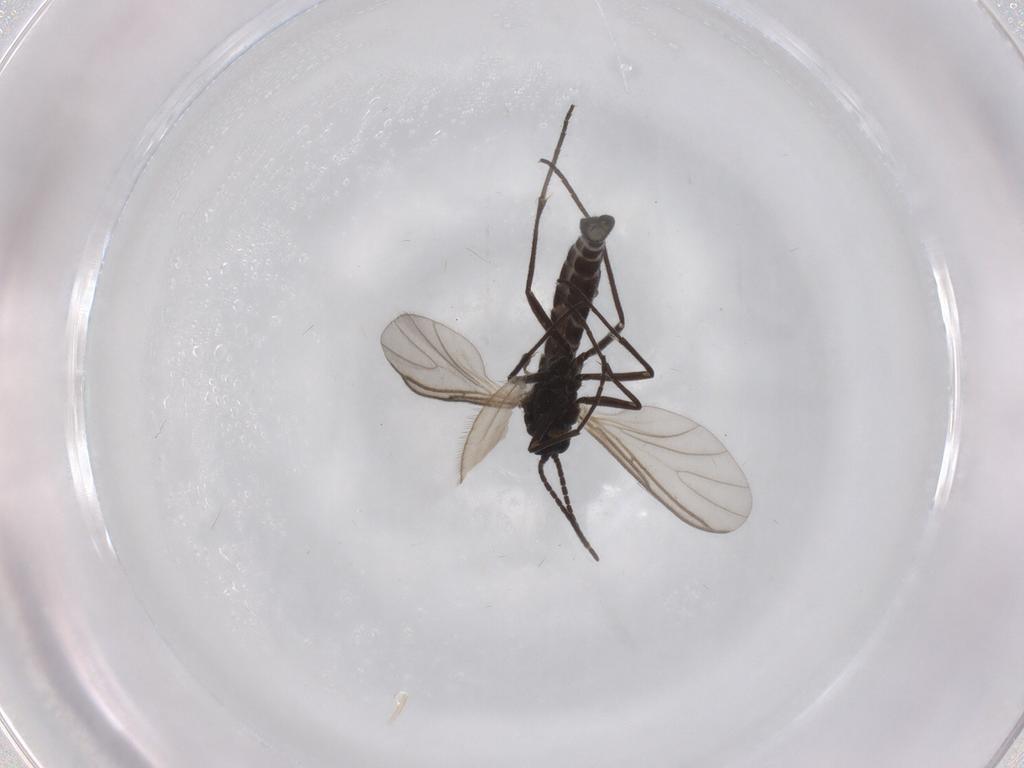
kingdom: Animalia
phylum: Arthropoda
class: Insecta
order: Diptera
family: Sciaridae
